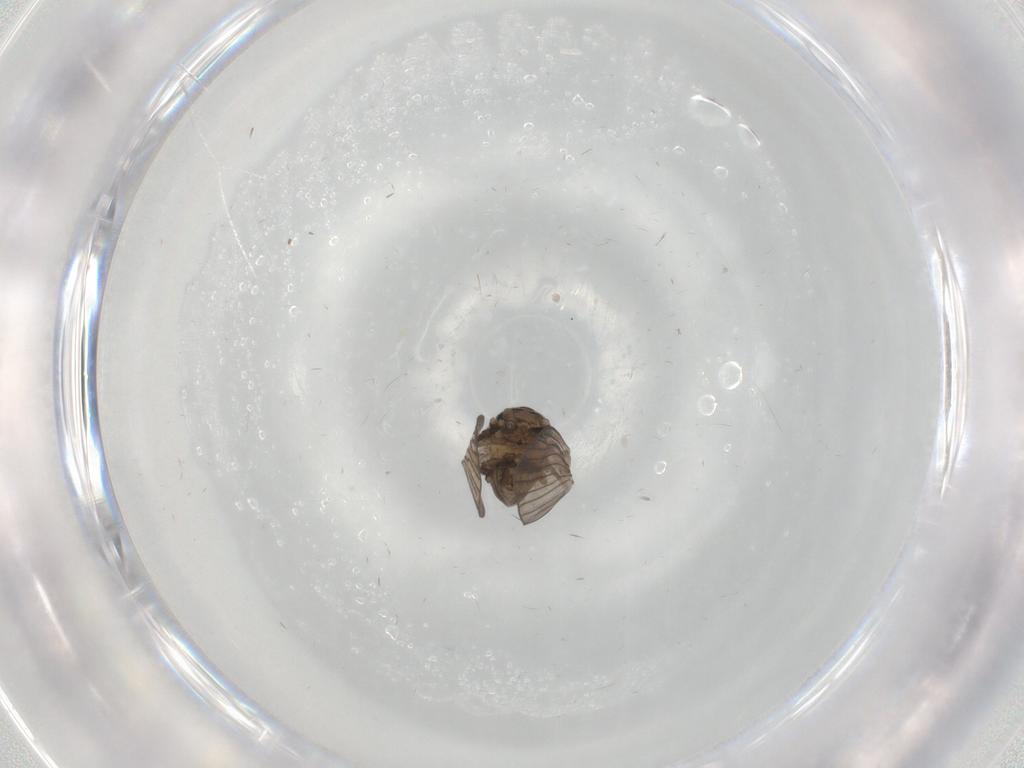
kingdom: Animalia
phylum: Arthropoda
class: Insecta
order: Diptera
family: Psychodidae
